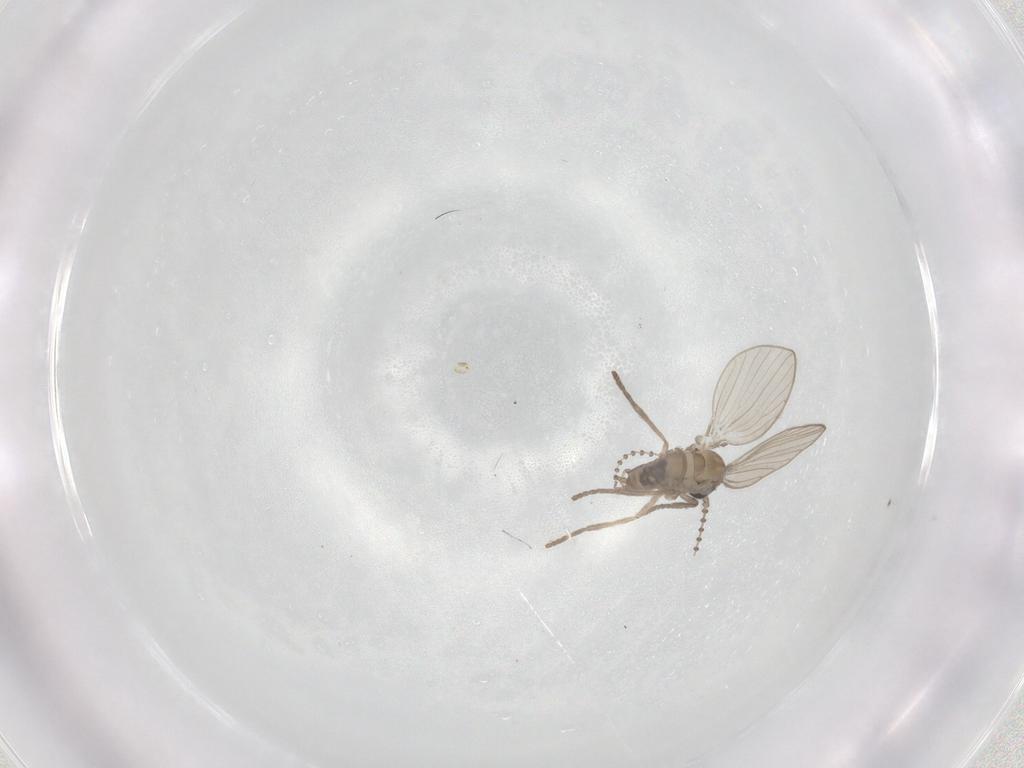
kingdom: Animalia
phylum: Arthropoda
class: Insecta
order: Diptera
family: Psychodidae
